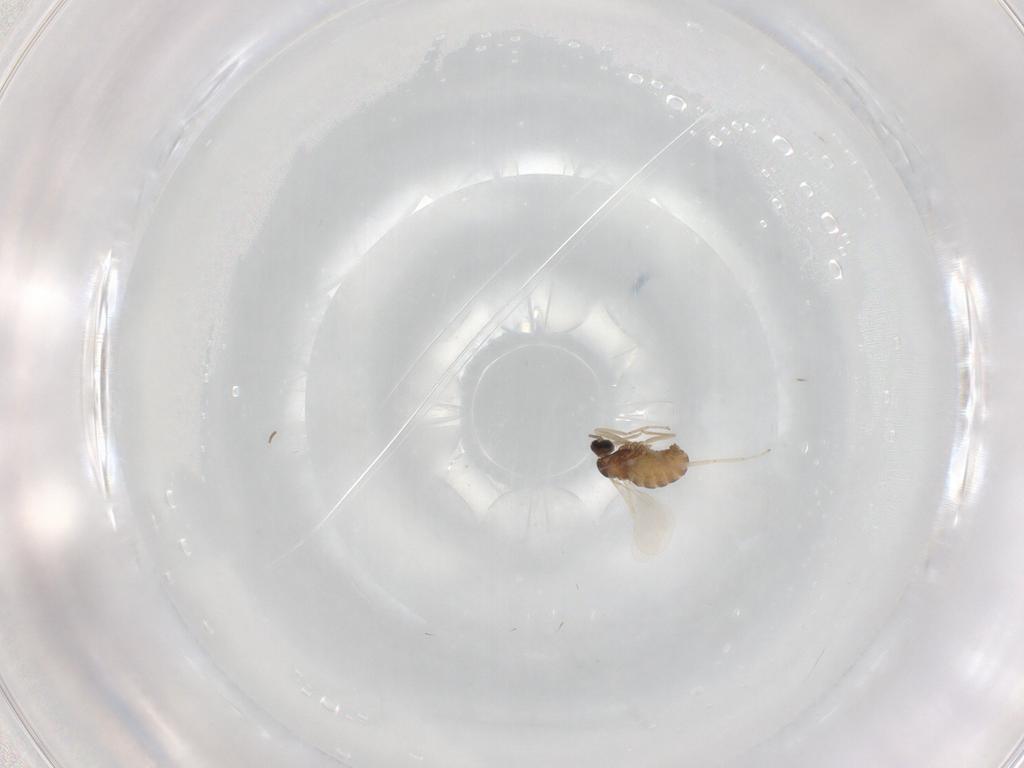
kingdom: Animalia
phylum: Arthropoda
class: Insecta
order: Diptera
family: Cecidomyiidae
